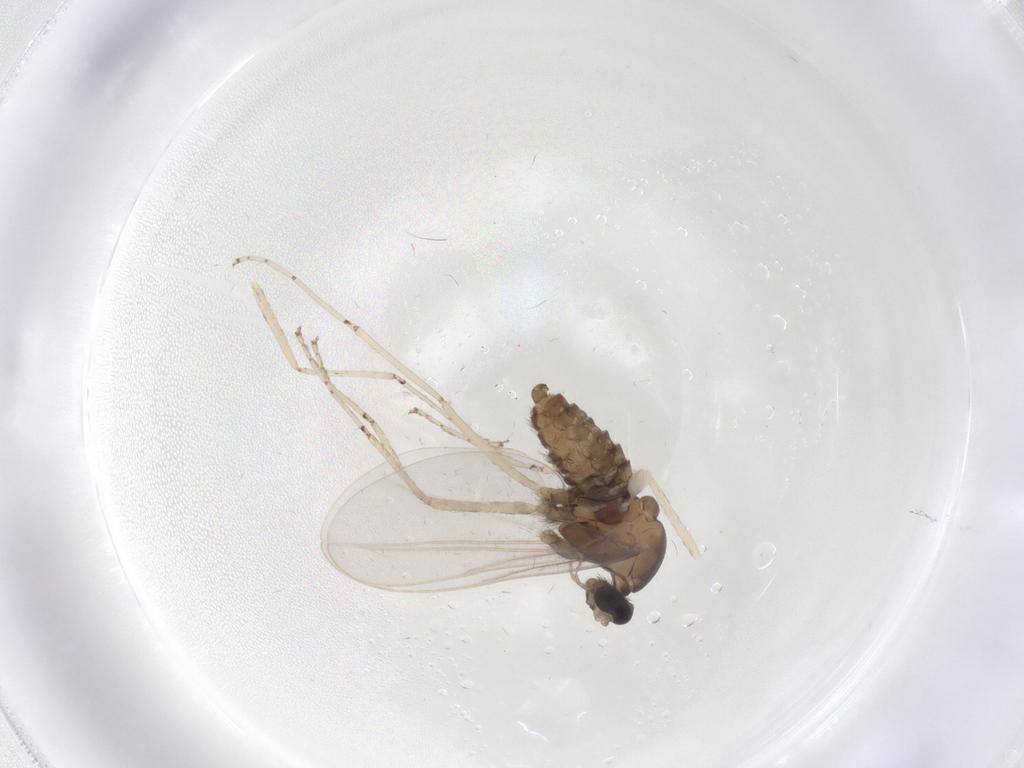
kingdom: Animalia
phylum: Arthropoda
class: Insecta
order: Diptera
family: Cecidomyiidae
